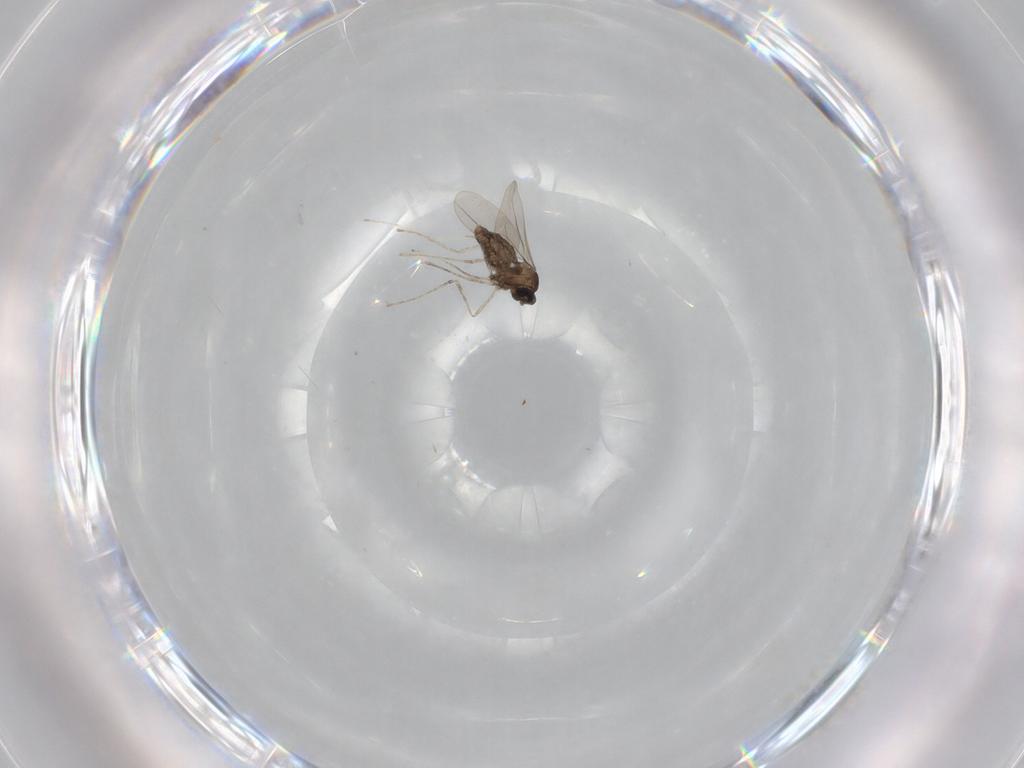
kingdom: Animalia
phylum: Arthropoda
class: Insecta
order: Diptera
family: Cecidomyiidae
